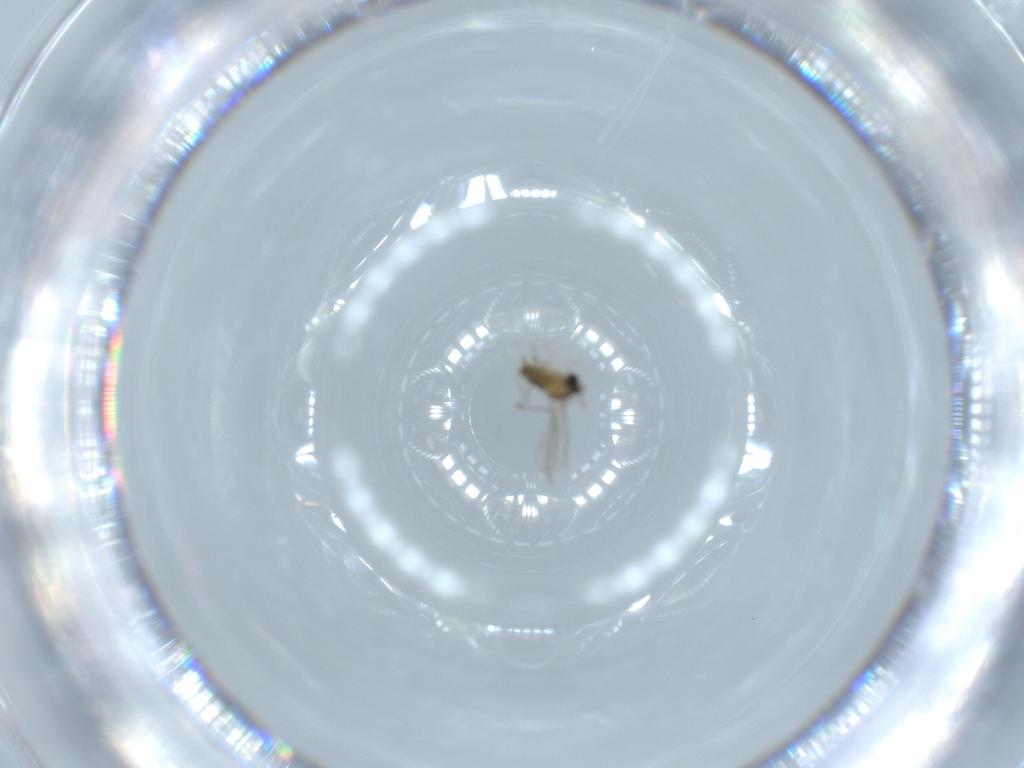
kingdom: Animalia
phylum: Arthropoda
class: Insecta
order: Diptera
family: Cecidomyiidae
